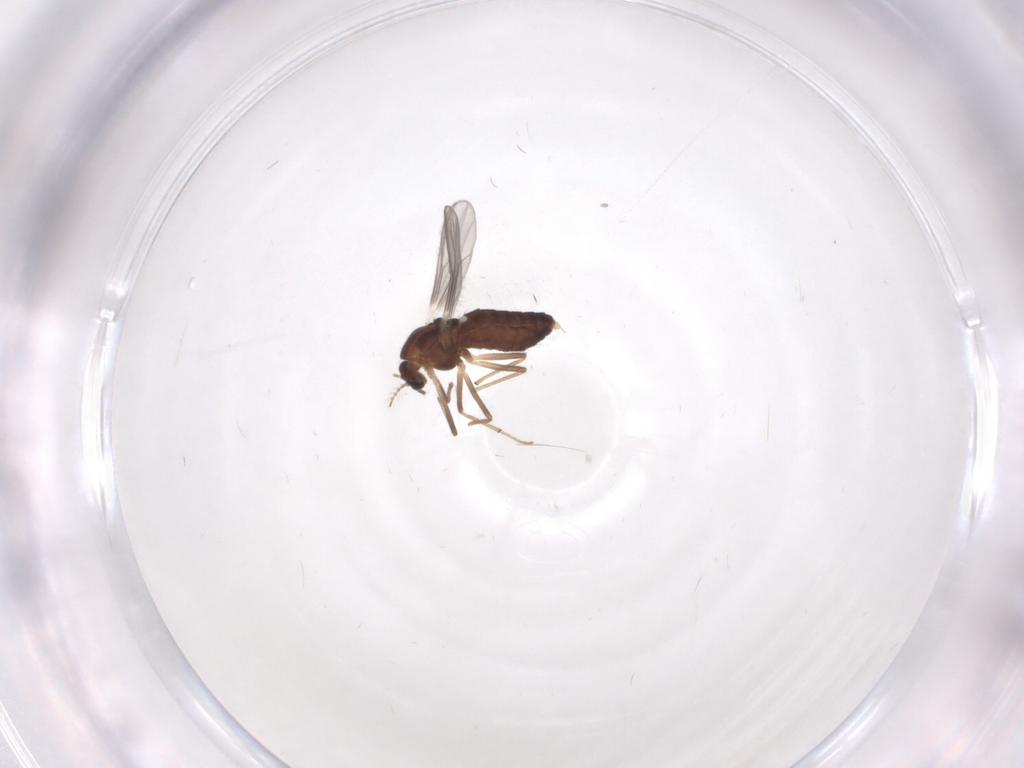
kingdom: Animalia
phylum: Arthropoda
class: Insecta
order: Diptera
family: Chironomidae
